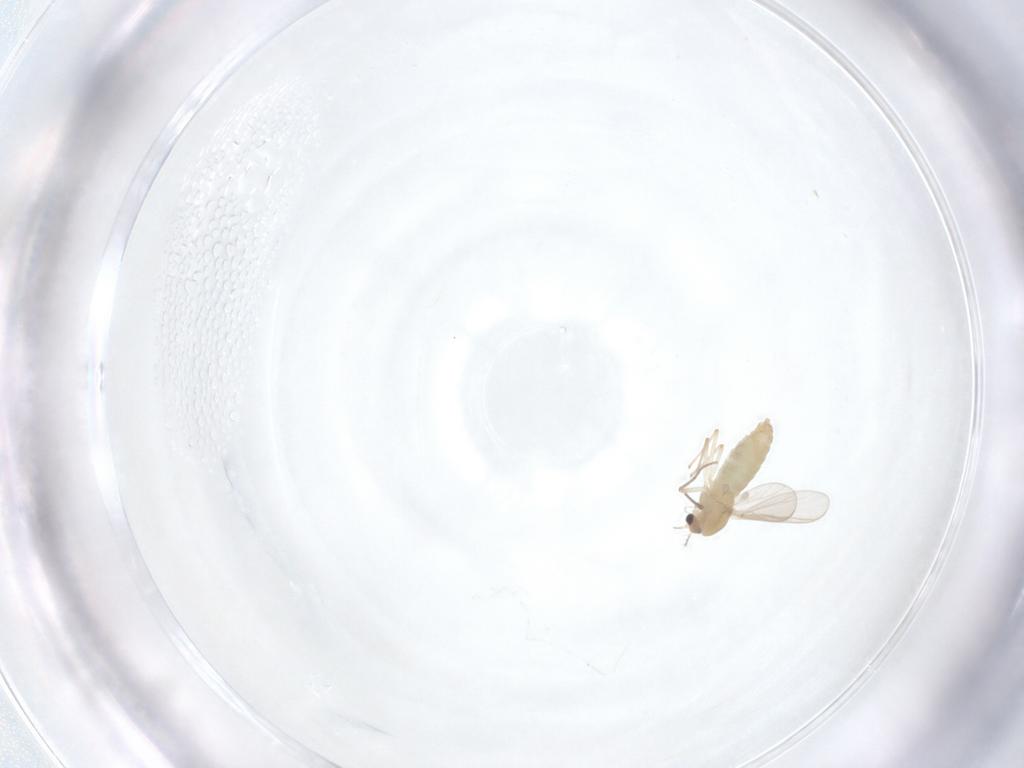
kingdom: Animalia
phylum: Arthropoda
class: Insecta
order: Diptera
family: Chironomidae
